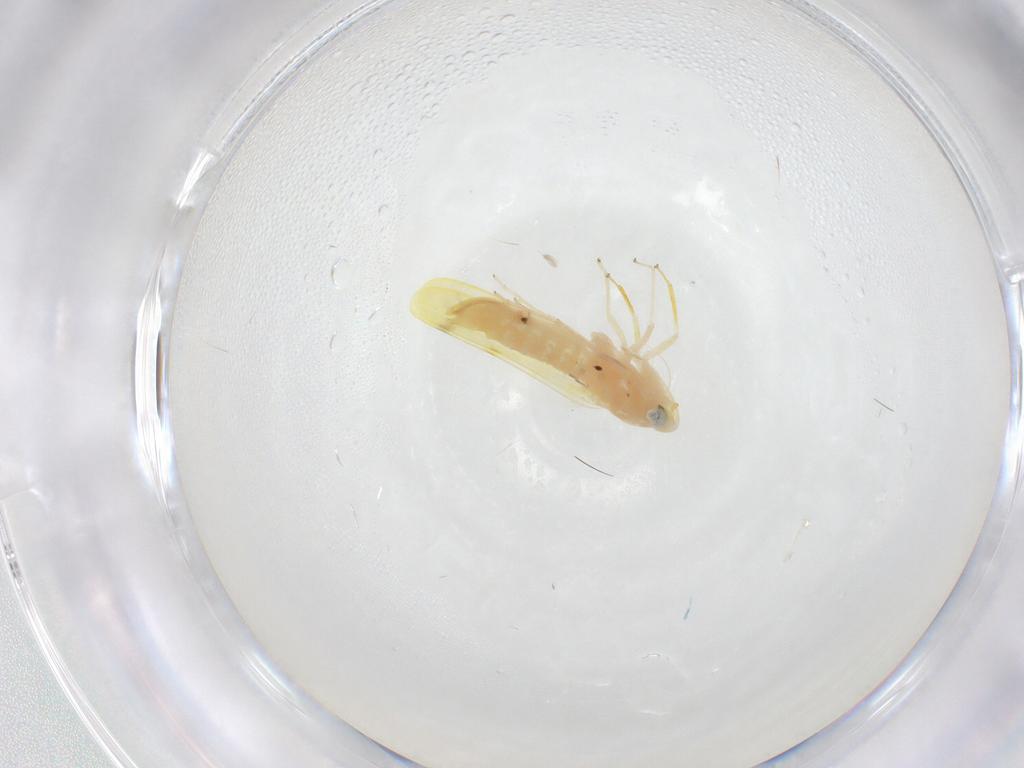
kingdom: Animalia
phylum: Arthropoda
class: Insecta
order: Hemiptera
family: Cicadellidae
